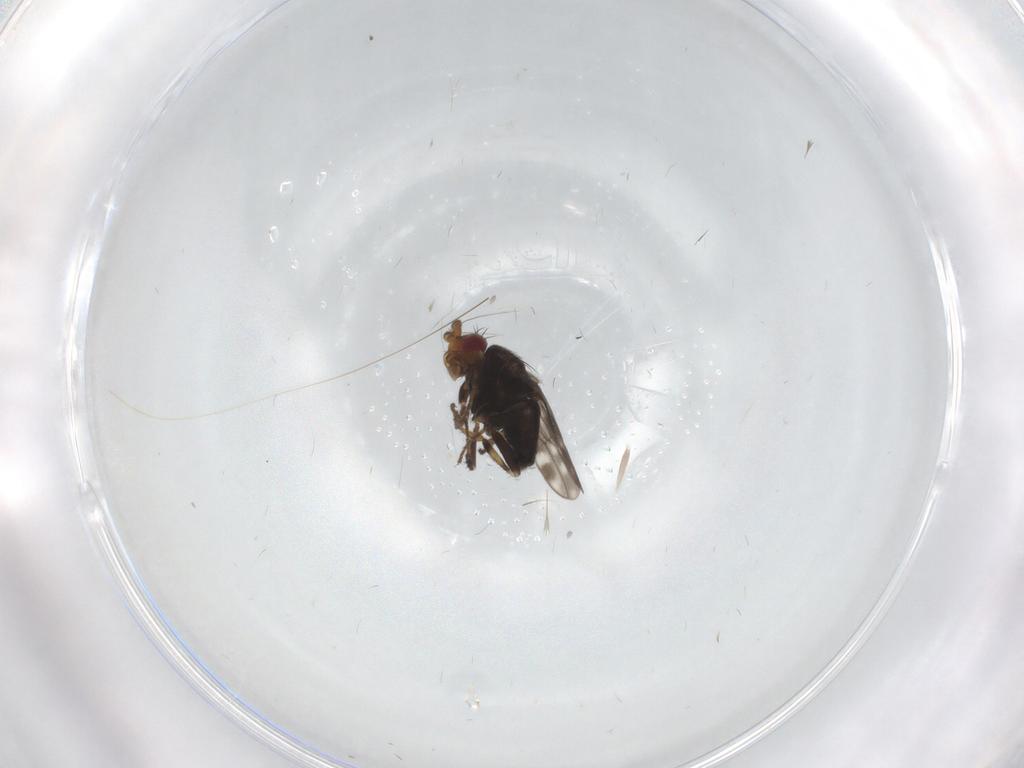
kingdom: Animalia
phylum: Arthropoda
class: Insecta
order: Diptera
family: Sphaeroceridae
